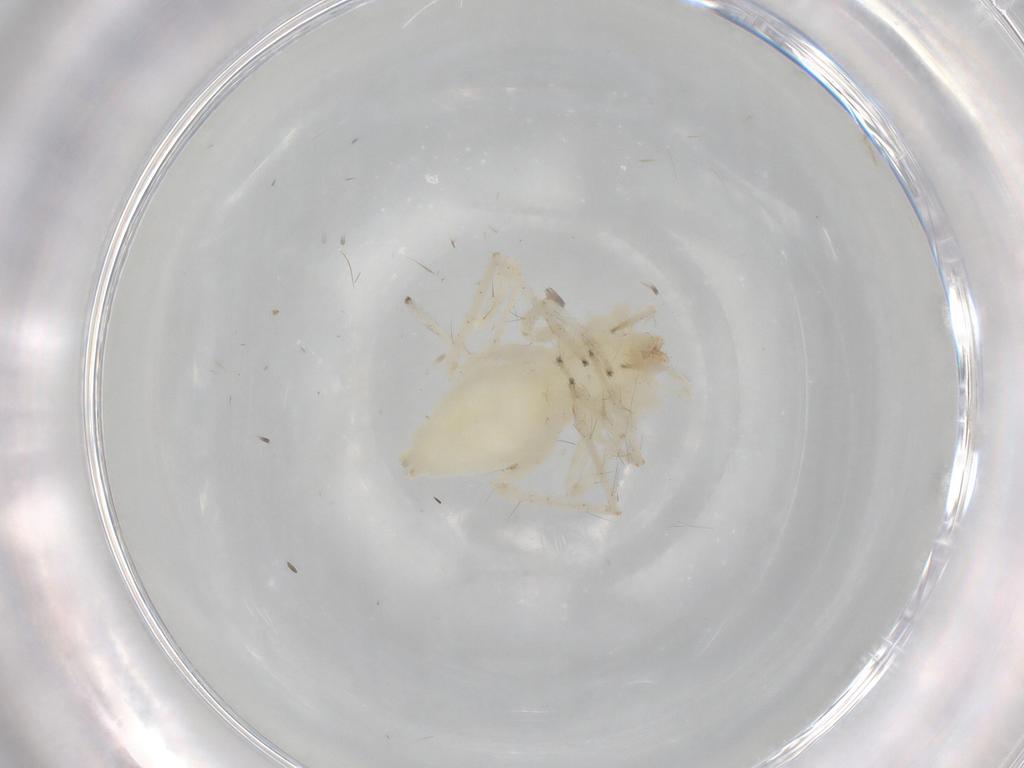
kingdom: Animalia
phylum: Arthropoda
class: Arachnida
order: Araneae
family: Anyphaenidae
